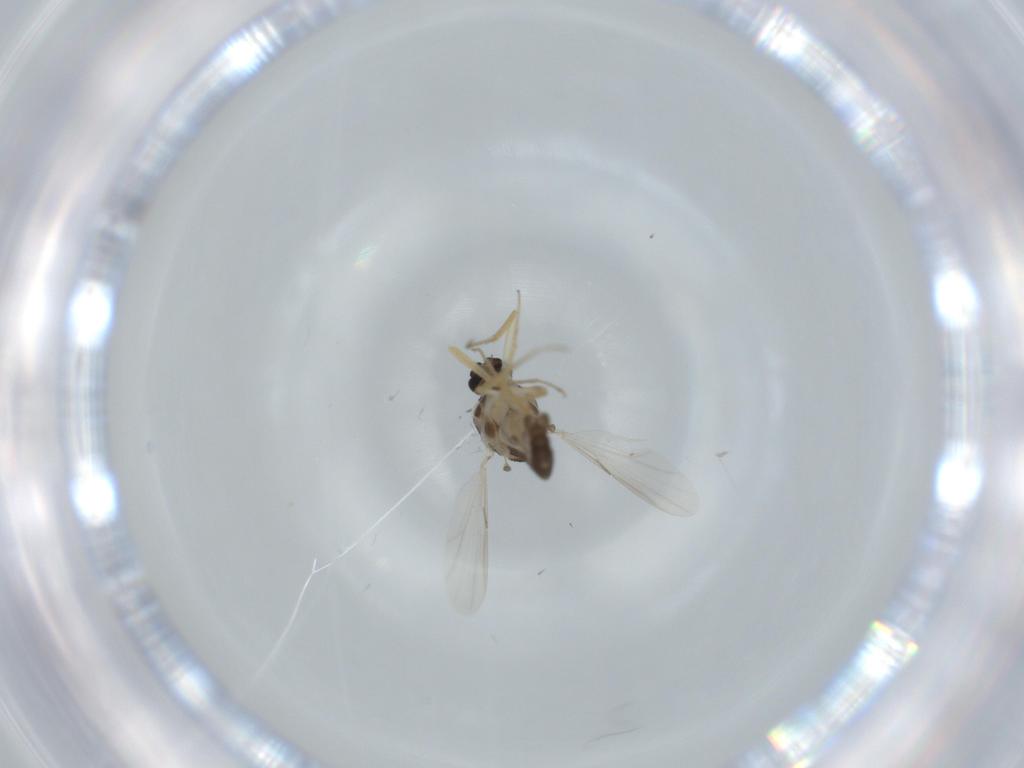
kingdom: Animalia
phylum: Arthropoda
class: Insecta
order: Diptera
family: Ceratopogonidae
